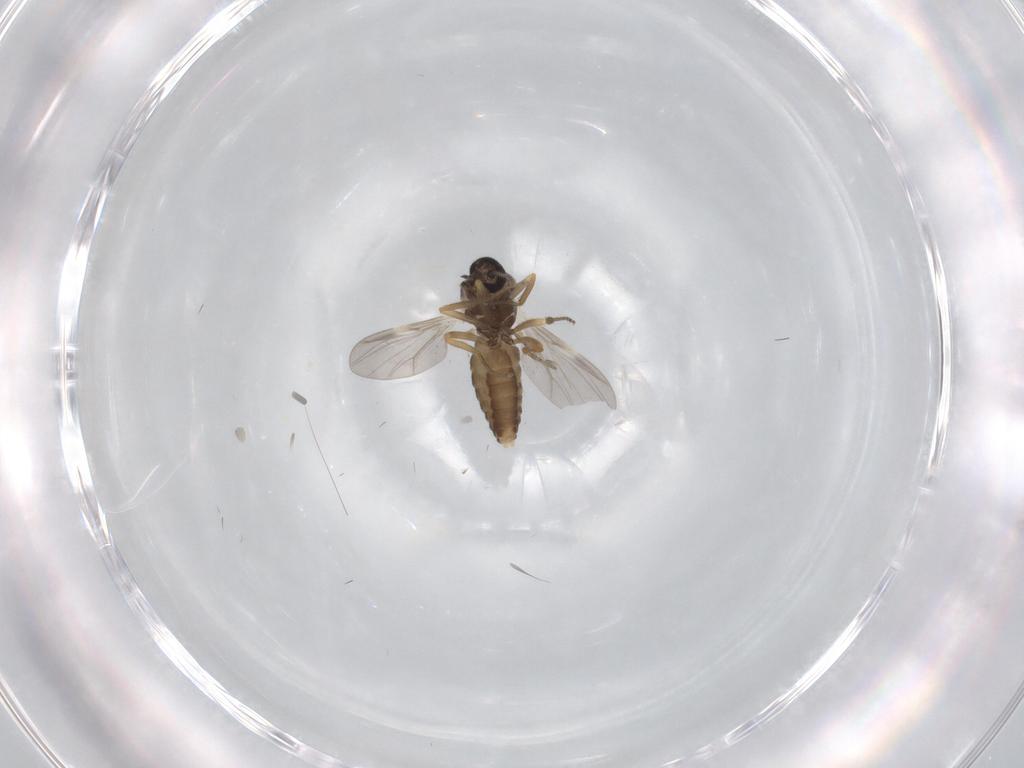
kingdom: Animalia
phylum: Arthropoda
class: Insecta
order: Diptera
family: Ceratopogonidae
